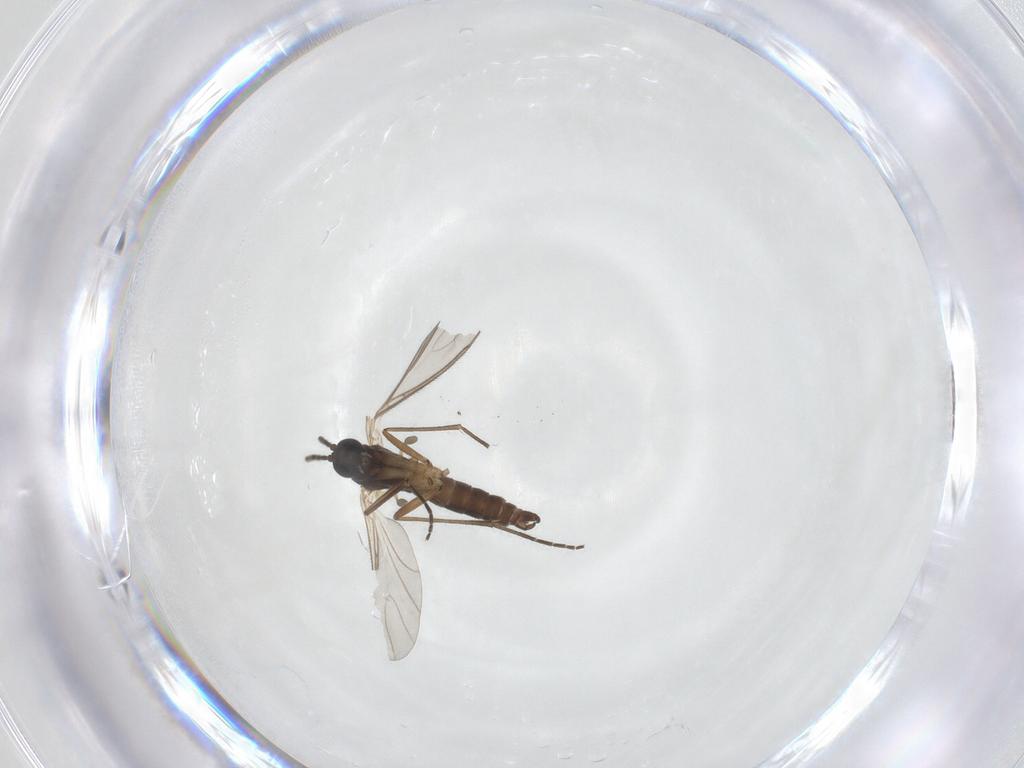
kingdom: Animalia
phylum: Arthropoda
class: Insecta
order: Diptera
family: Sciaridae
